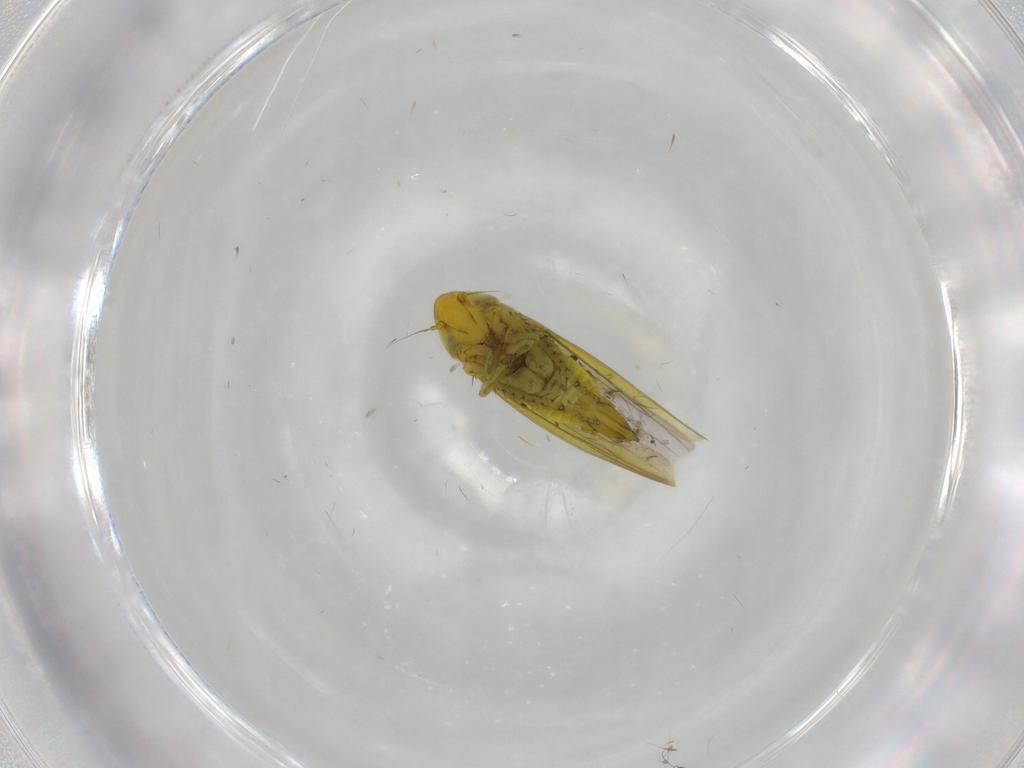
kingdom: Animalia
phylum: Arthropoda
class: Insecta
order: Hemiptera
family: Cicadellidae
